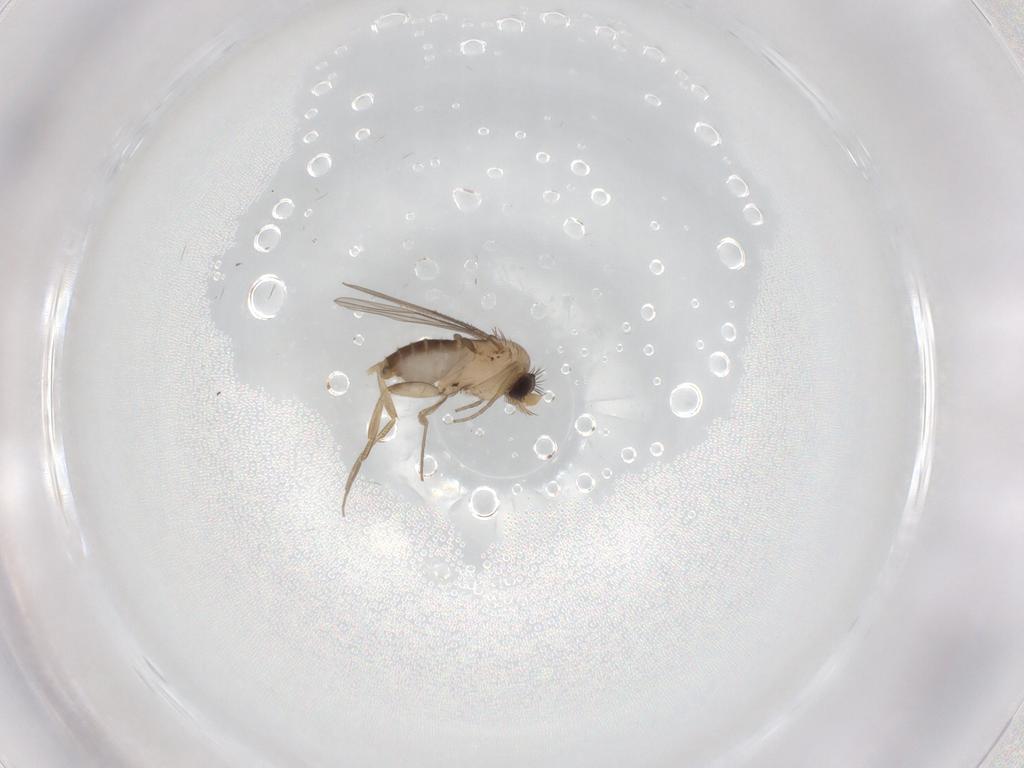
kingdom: Animalia
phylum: Arthropoda
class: Insecta
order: Diptera
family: Phoridae
